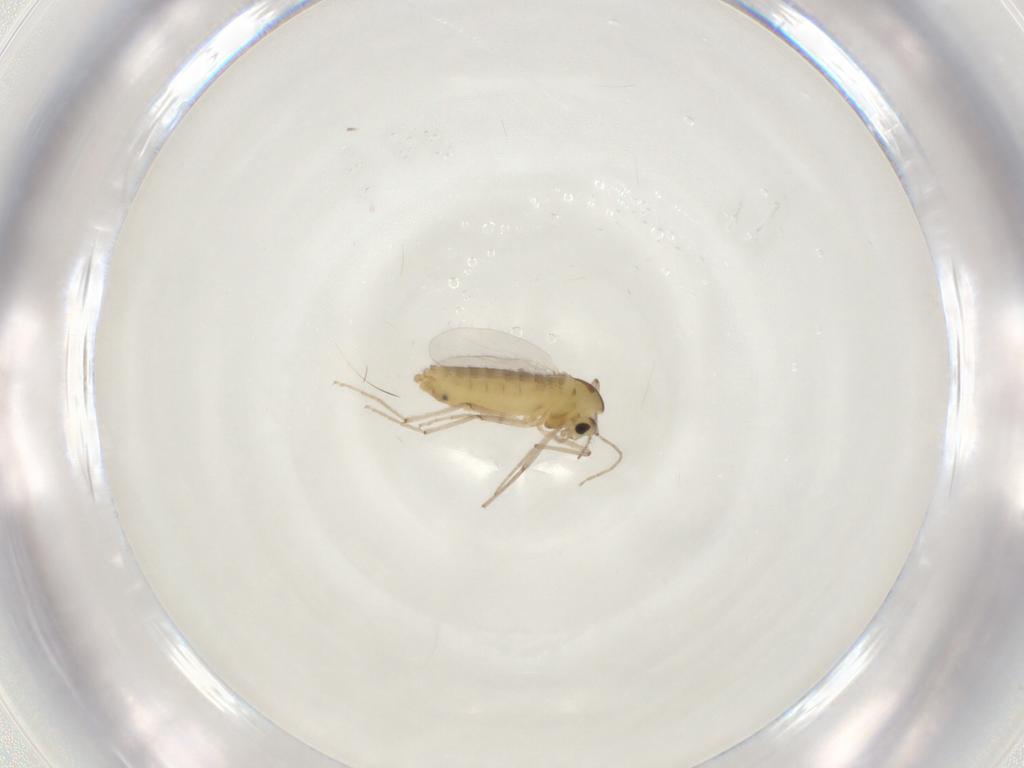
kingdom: Animalia
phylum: Arthropoda
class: Insecta
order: Diptera
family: Chironomidae
